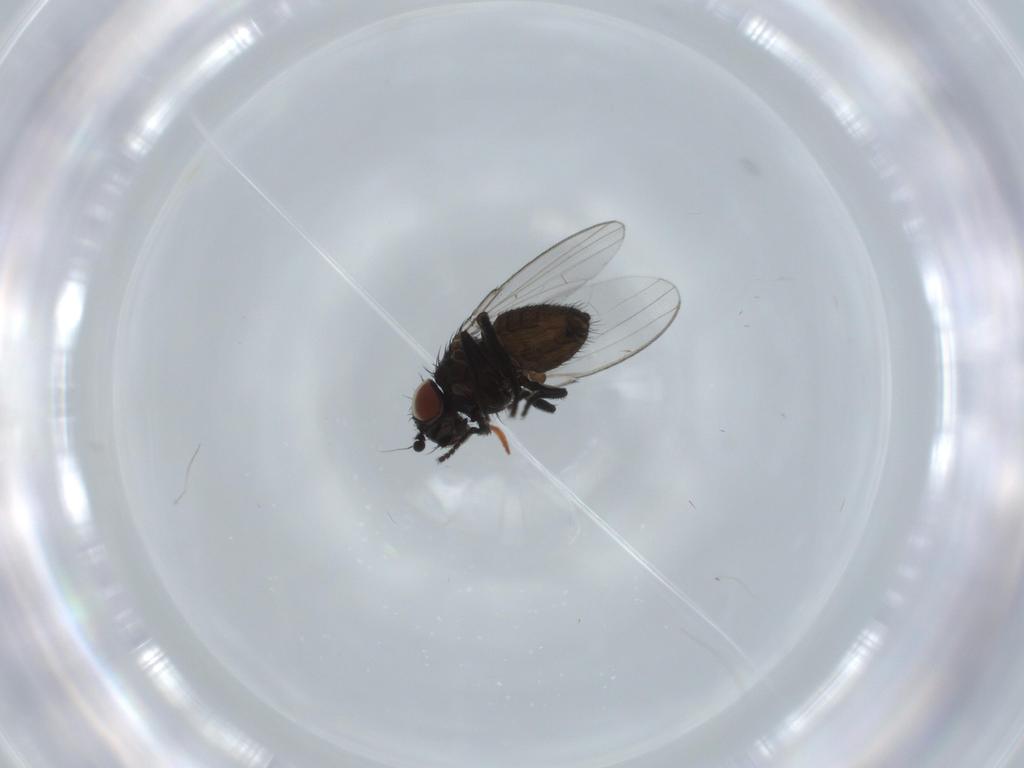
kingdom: Animalia
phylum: Arthropoda
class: Insecta
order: Diptera
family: Milichiidae
